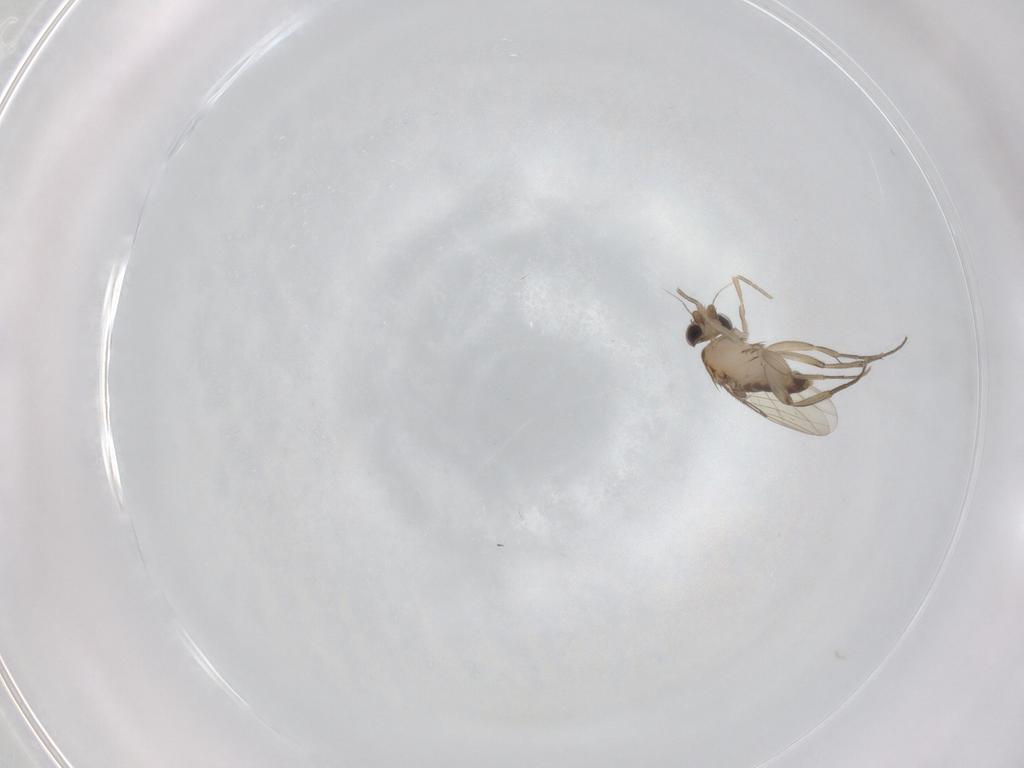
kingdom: Animalia
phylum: Arthropoda
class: Insecta
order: Diptera
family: Phoridae
